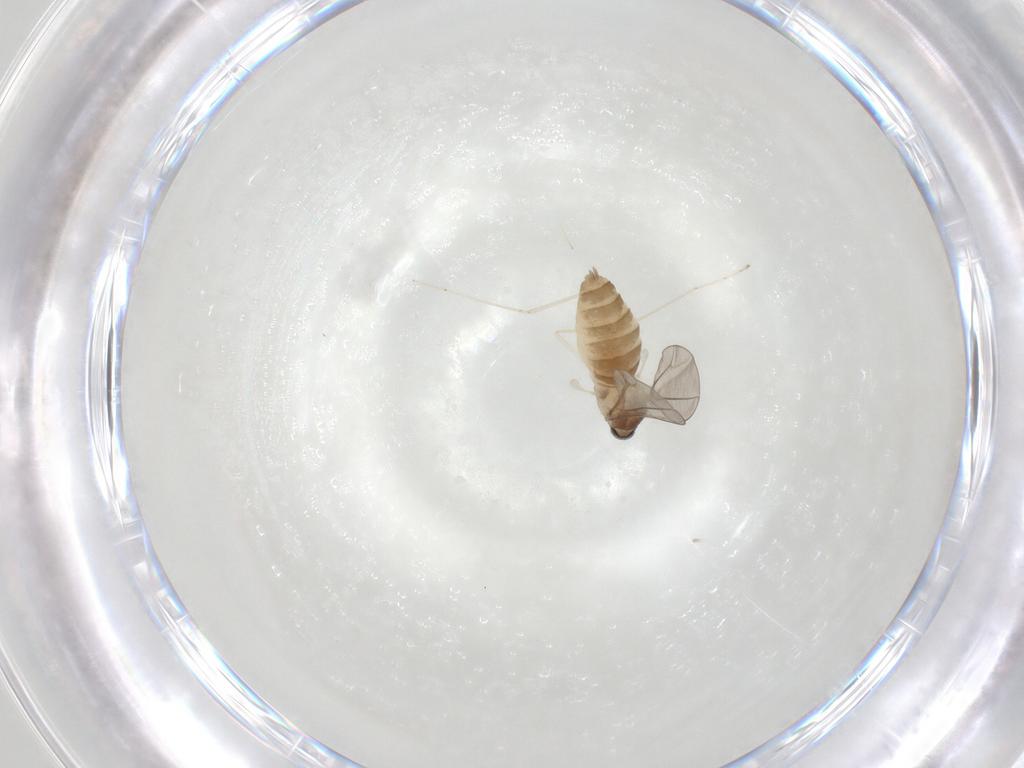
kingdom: Animalia
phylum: Arthropoda
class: Insecta
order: Diptera
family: Cecidomyiidae
